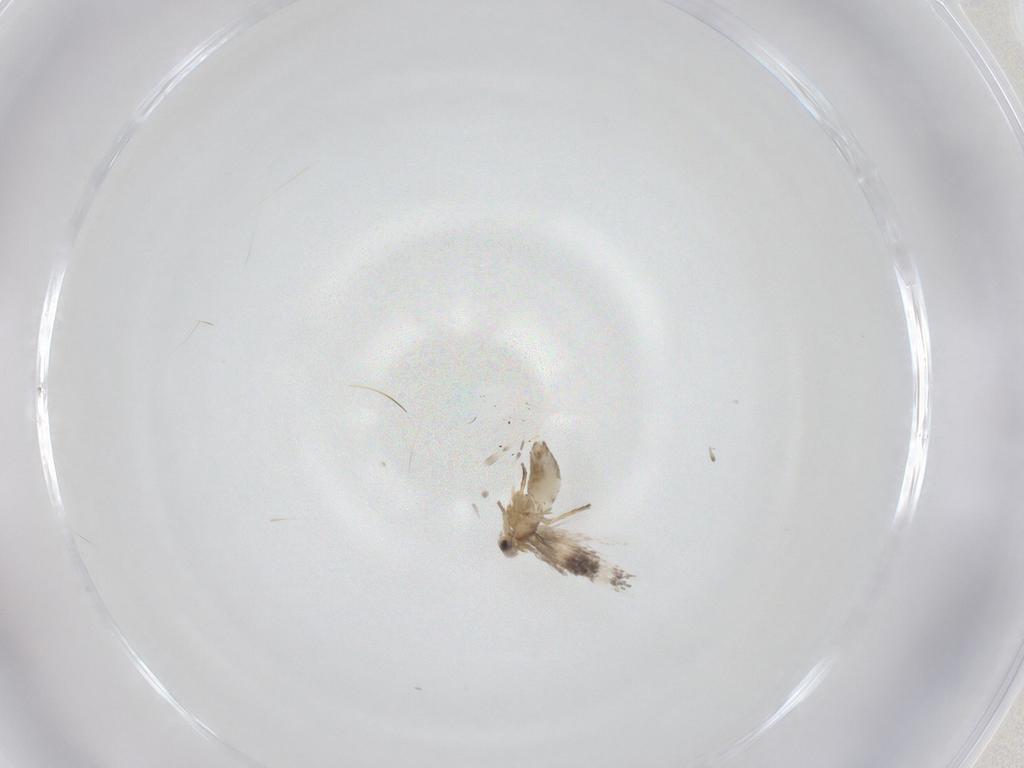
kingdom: Animalia
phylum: Arthropoda
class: Insecta
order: Lepidoptera
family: Nepticulidae
